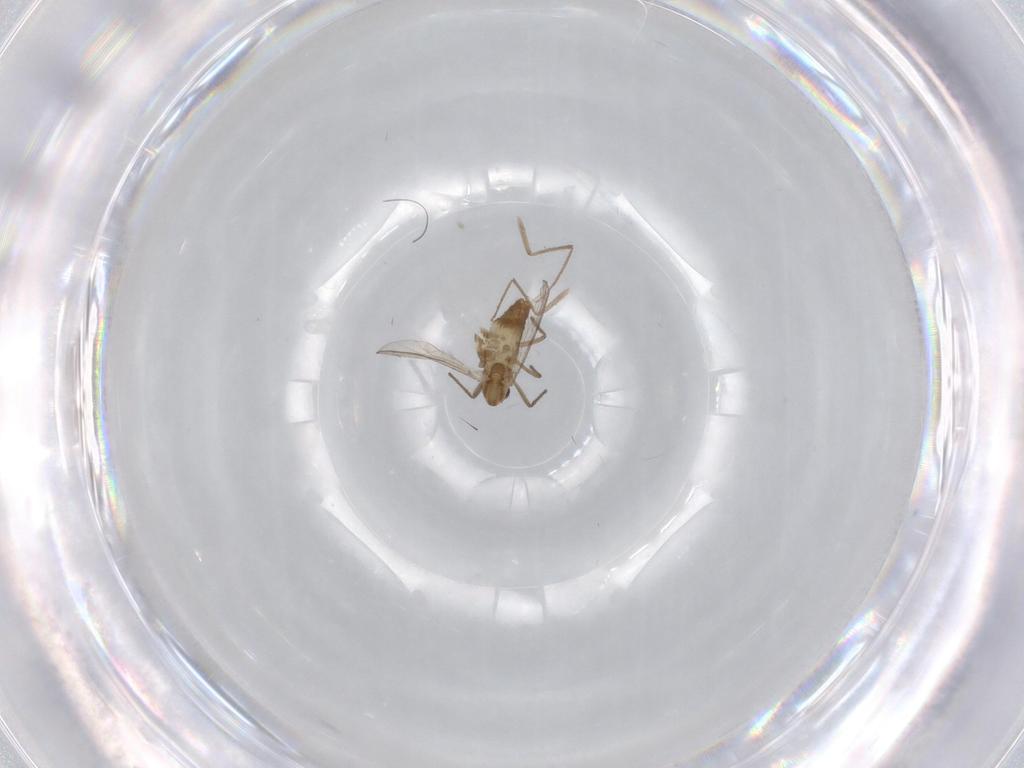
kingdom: Animalia
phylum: Arthropoda
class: Insecta
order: Diptera
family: Chironomidae
